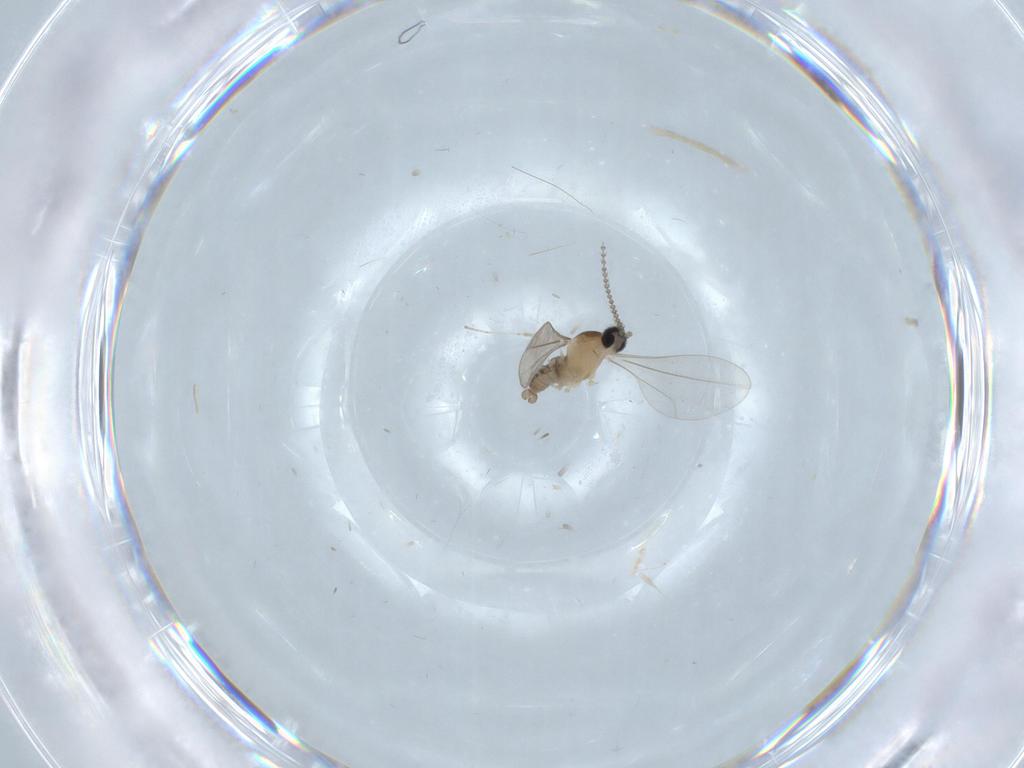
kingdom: Animalia
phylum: Arthropoda
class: Insecta
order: Diptera
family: Cecidomyiidae
